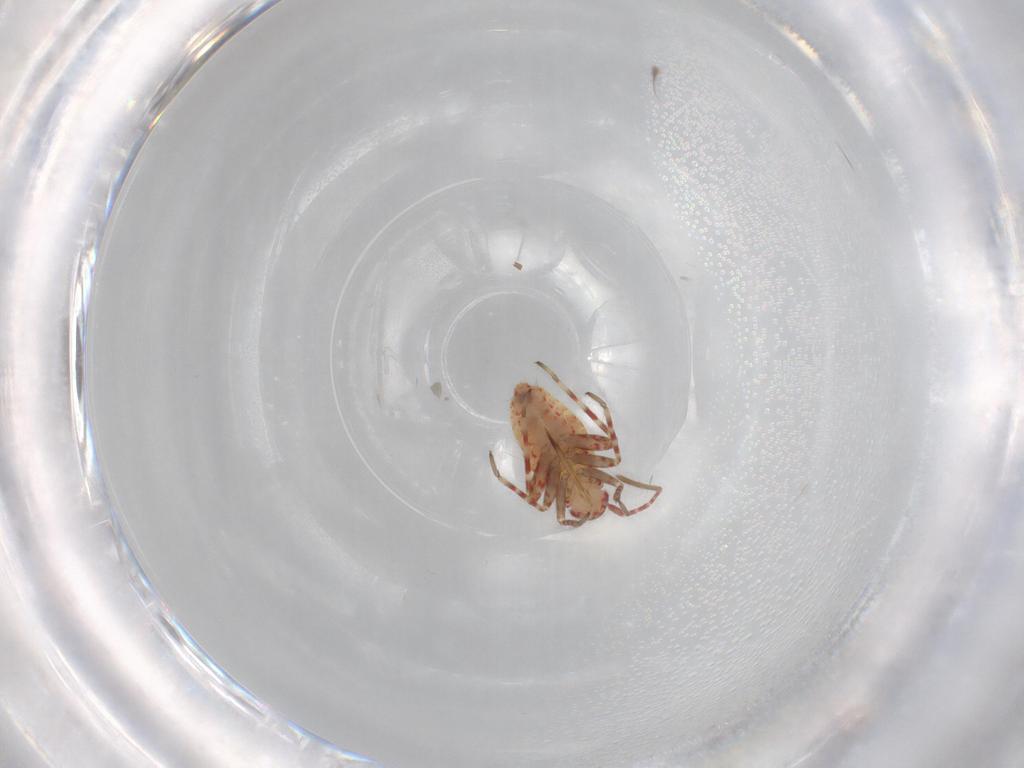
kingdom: Animalia
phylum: Arthropoda
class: Insecta
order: Hemiptera
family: Miridae
